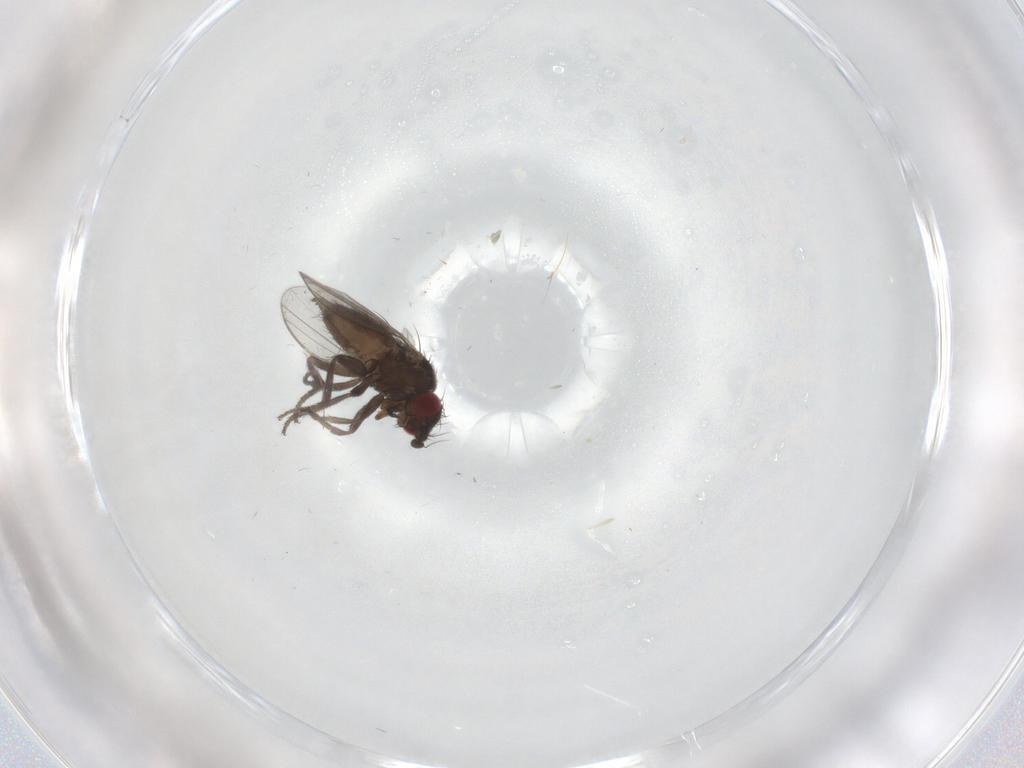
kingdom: Animalia
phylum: Arthropoda
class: Insecta
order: Diptera
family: Milichiidae
